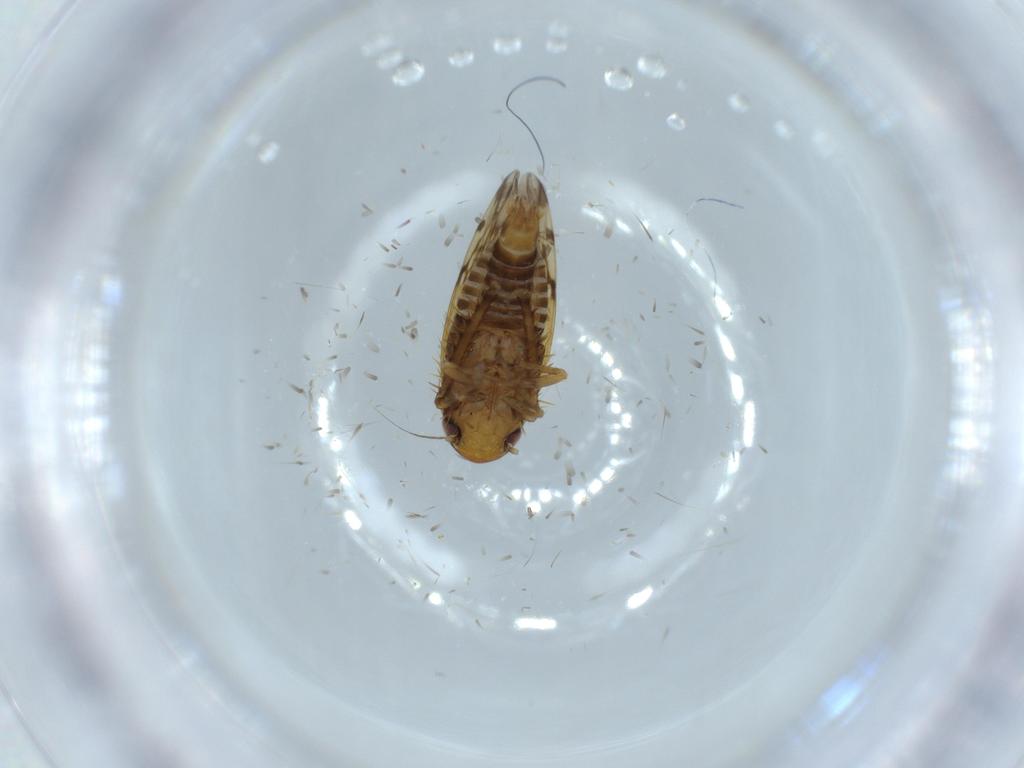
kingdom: Animalia
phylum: Arthropoda
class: Insecta
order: Hemiptera
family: Cicadellidae
